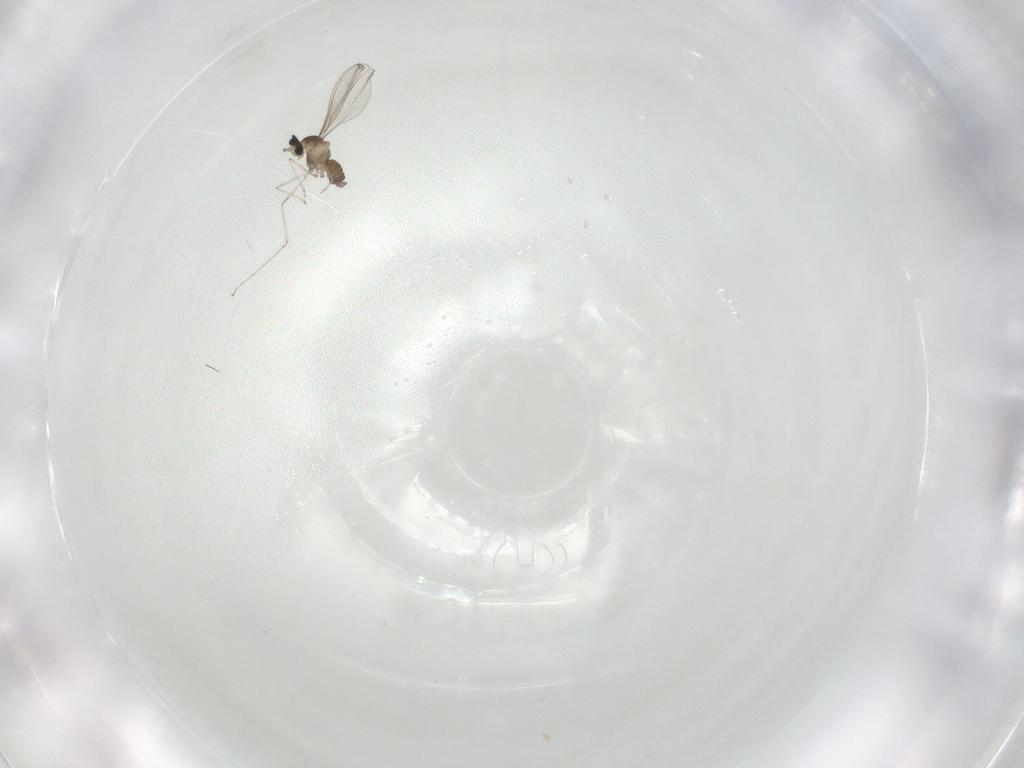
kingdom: Animalia
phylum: Arthropoda
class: Insecta
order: Diptera
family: Cecidomyiidae
